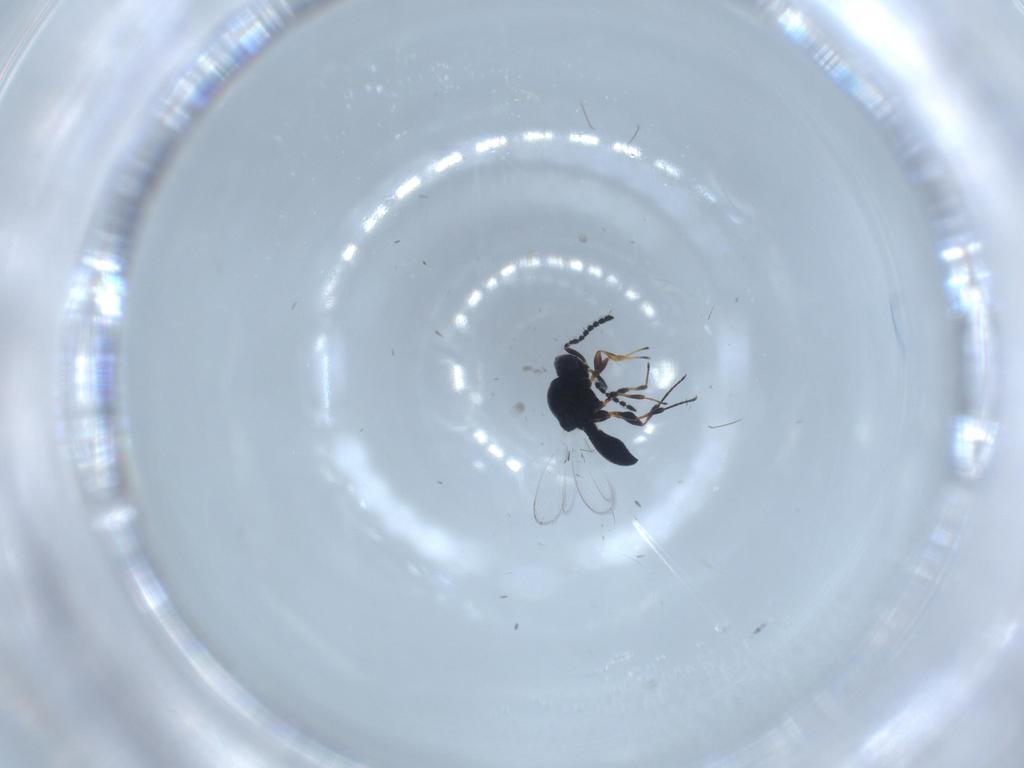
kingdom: Animalia
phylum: Arthropoda
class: Insecta
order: Hymenoptera
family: Platygastridae
